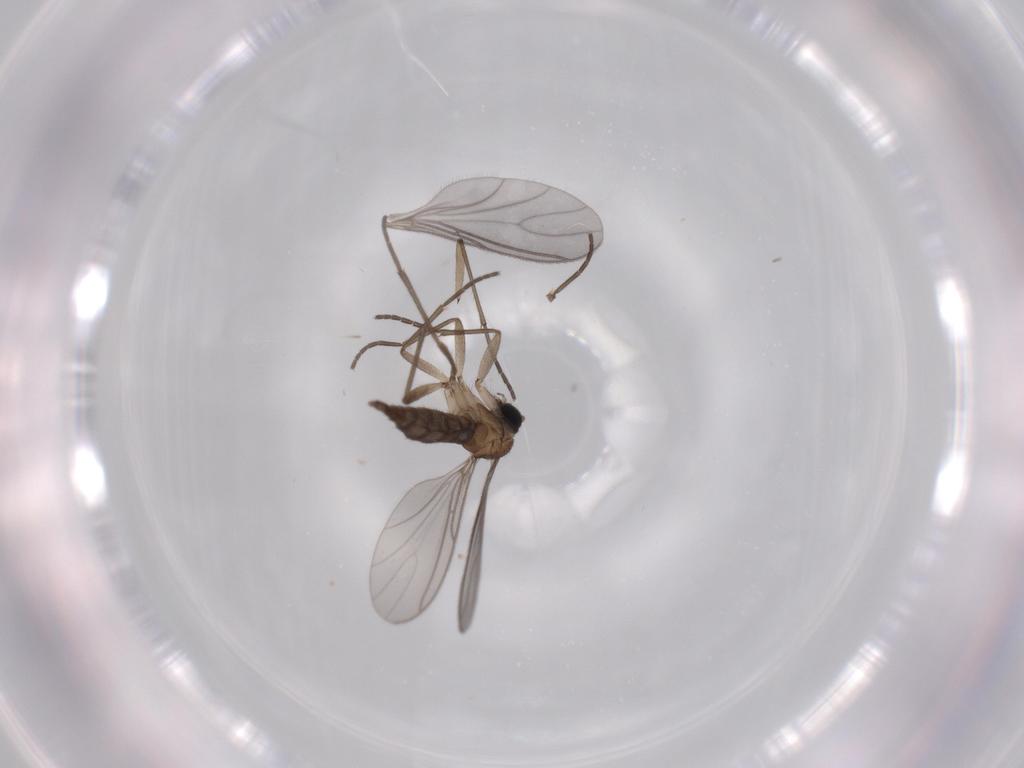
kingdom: Animalia
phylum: Arthropoda
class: Insecta
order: Diptera
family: Sciaridae
